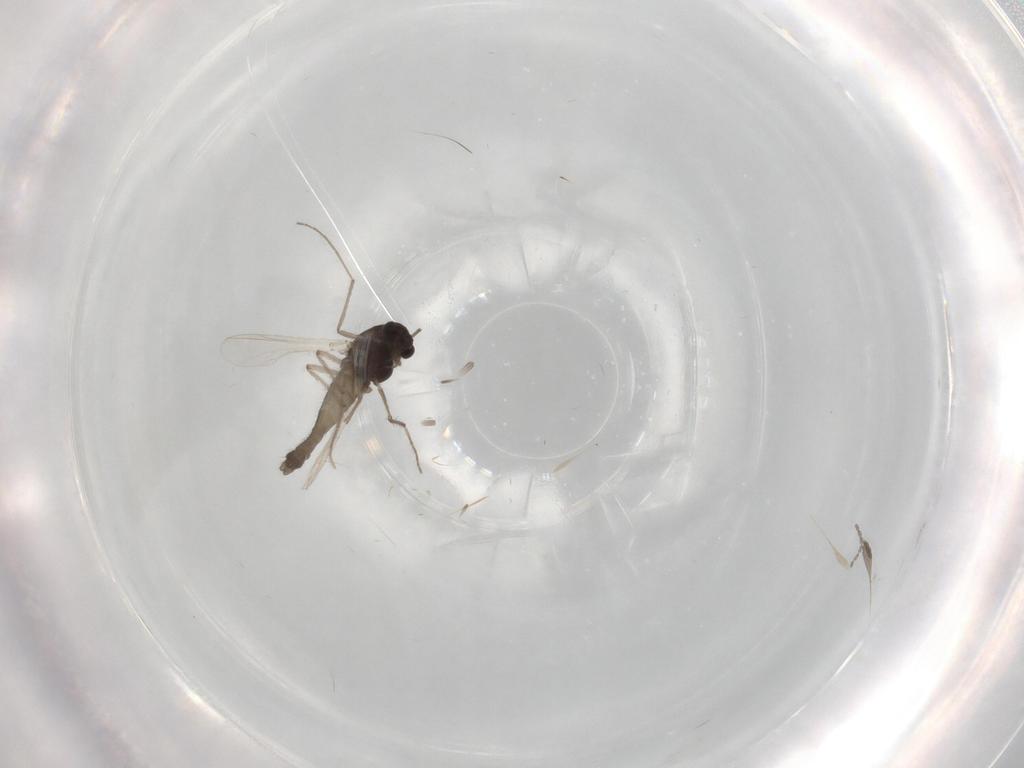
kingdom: Animalia
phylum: Arthropoda
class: Insecta
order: Diptera
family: Chironomidae
